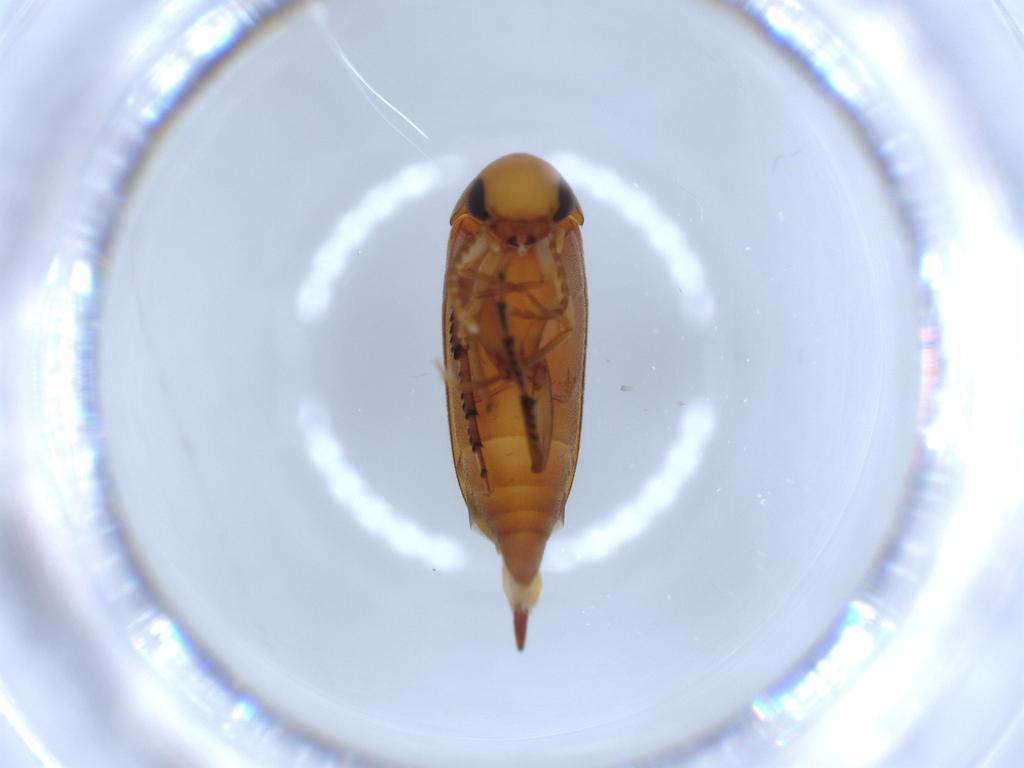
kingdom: Animalia
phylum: Arthropoda
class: Insecta
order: Coleoptera
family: Mordellidae
